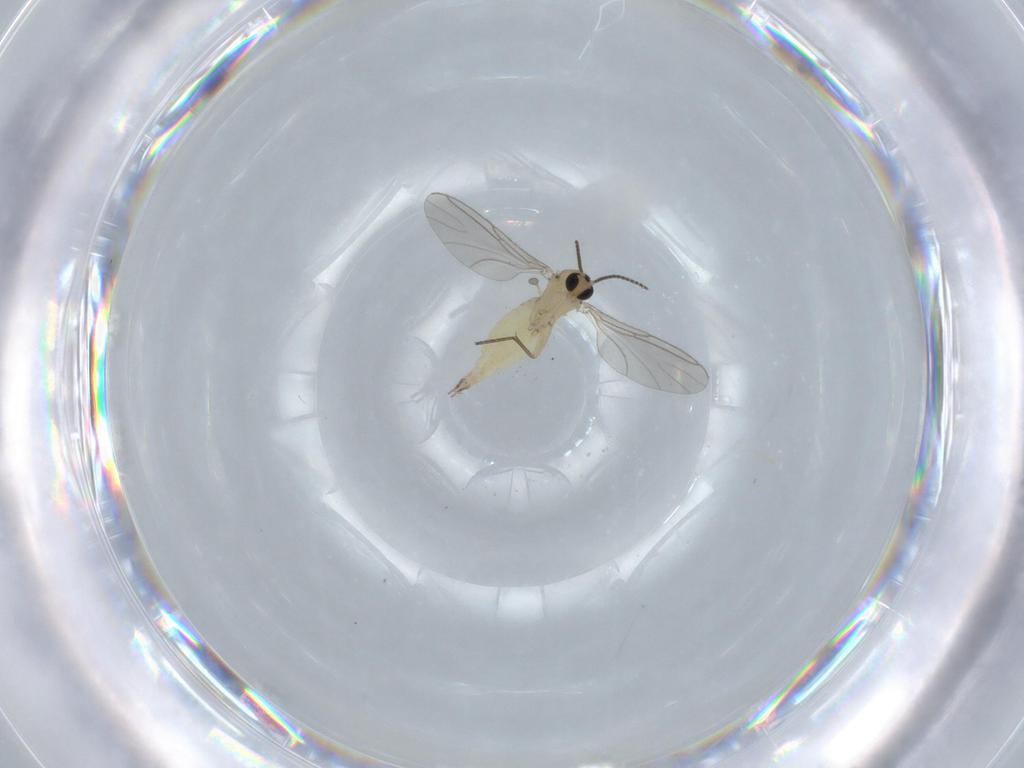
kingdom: Animalia
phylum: Arthropoda
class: Insecta
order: Diptera
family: Sciaridae
